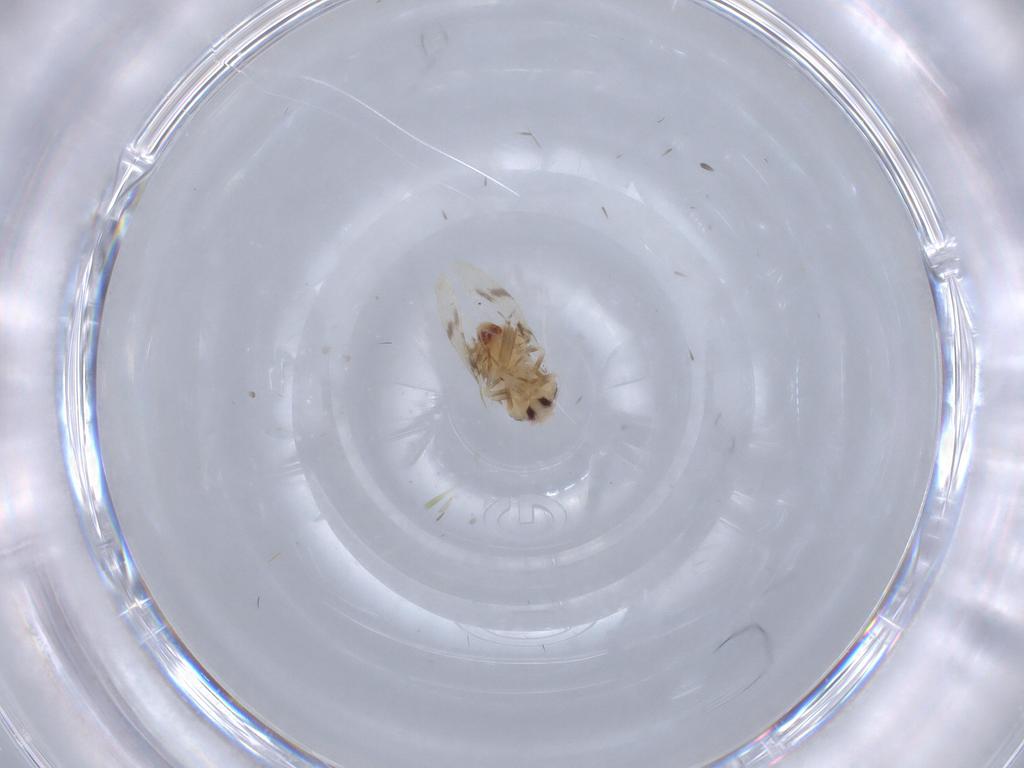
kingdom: Animalia
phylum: Arthropoda
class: Insecta
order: Hemiptera
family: Aleyrodidae
